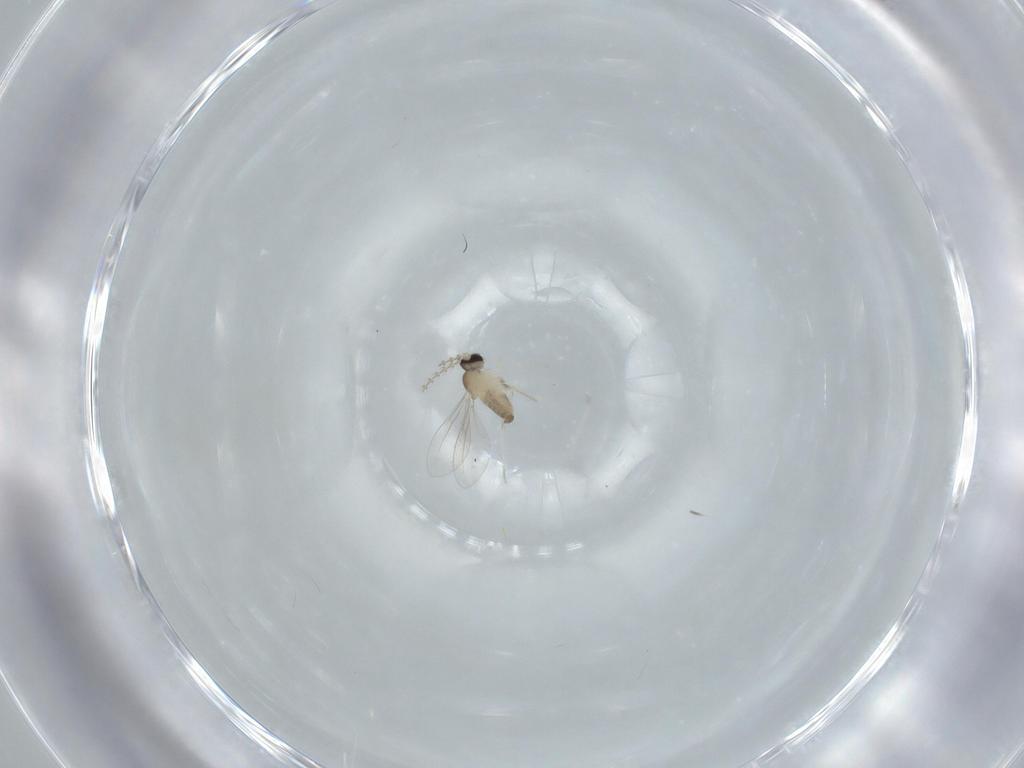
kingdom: Animalia
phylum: Arthropoda
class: Insecta
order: Diptera
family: Cecidomyiidae
